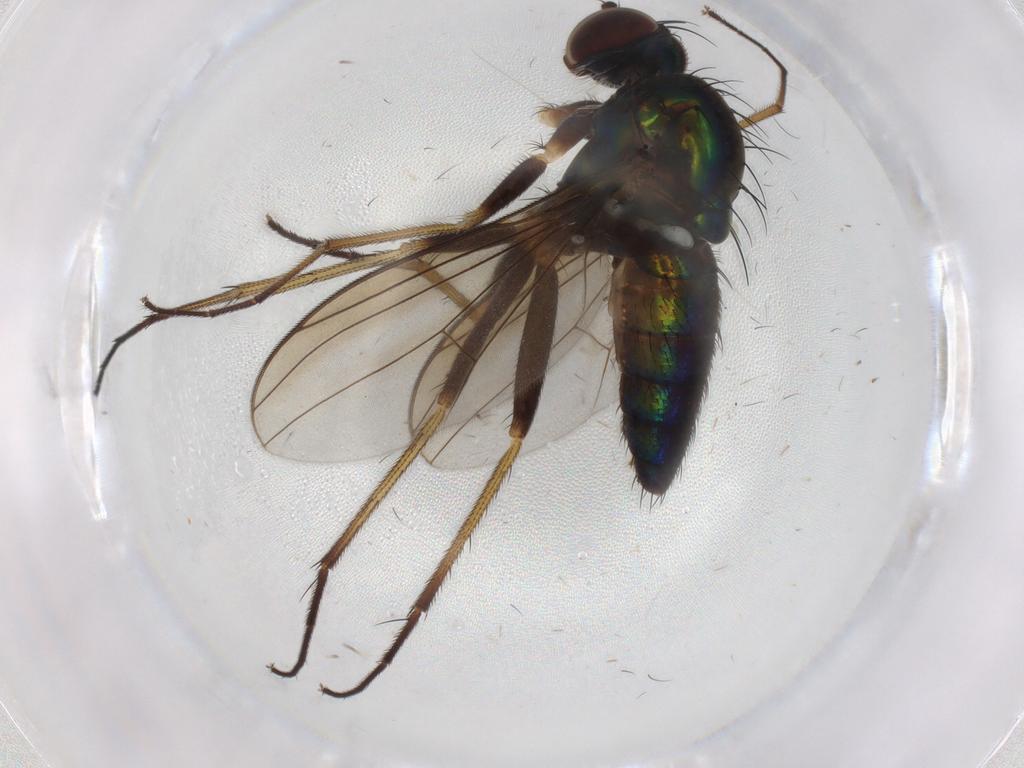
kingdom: Animalia
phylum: Arthropoda
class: Insecta
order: Diptera
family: Dolichopodidae
